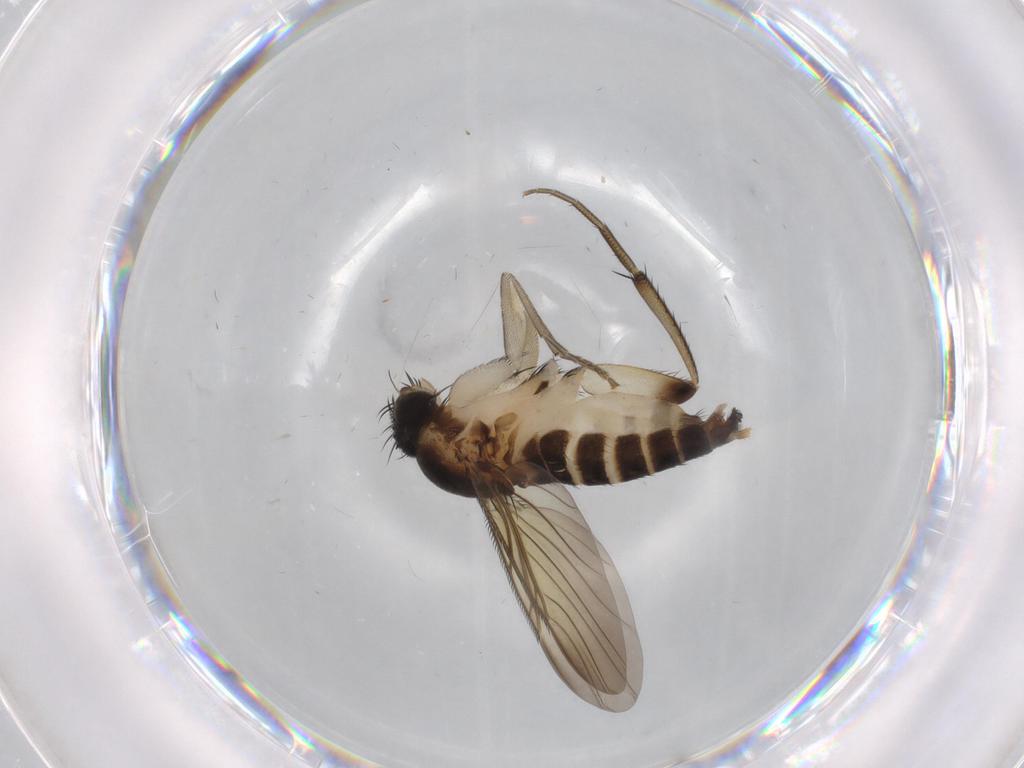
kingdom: Animalia
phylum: Arthropoda
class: Insecta
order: Diptera
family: Phoridae
